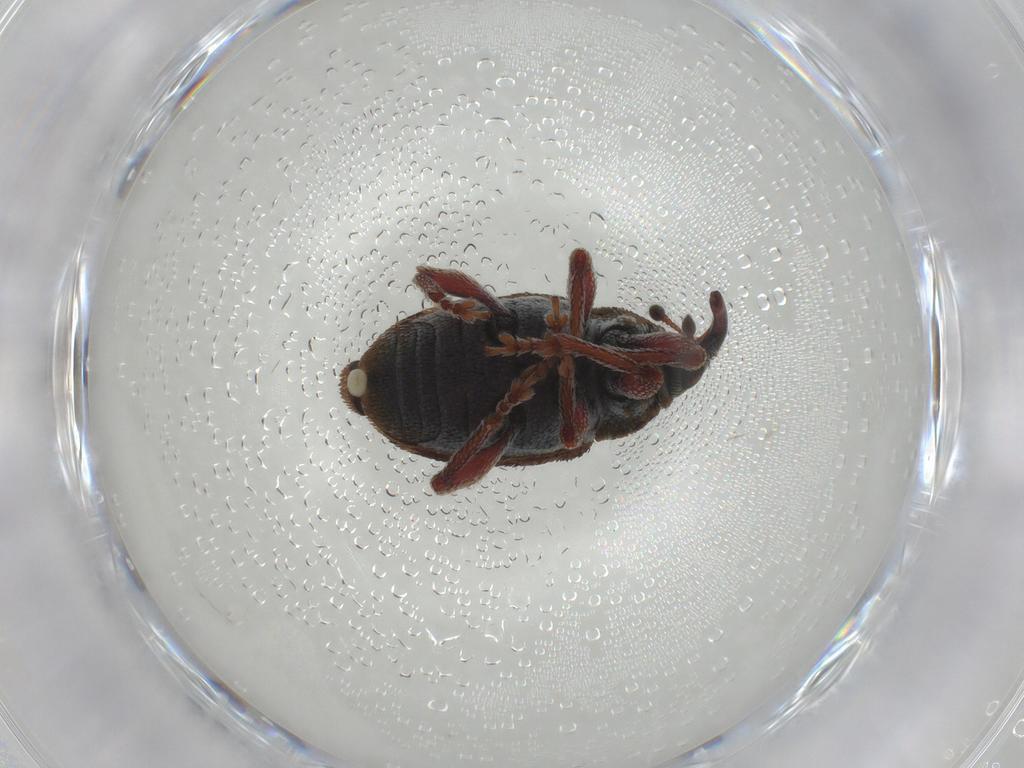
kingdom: Animalia
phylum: Arthropoda
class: Insecta
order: Coleoptera
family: Curculionidae
